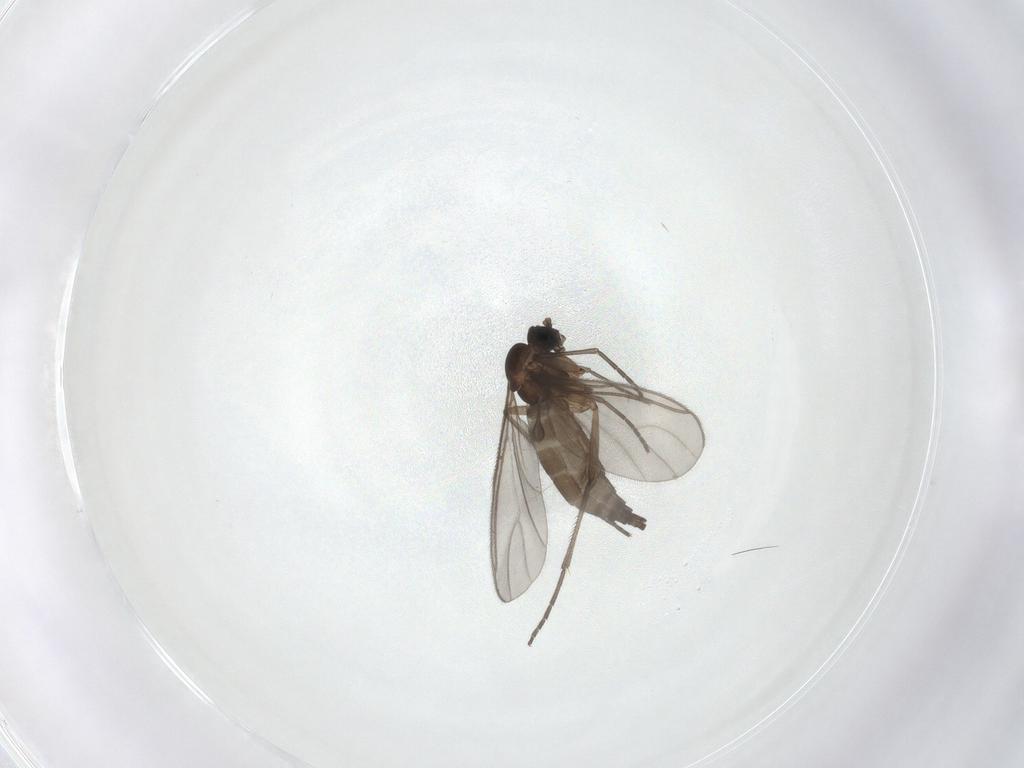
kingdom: Animalia
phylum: Arthropoda
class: Insecta
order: Diptera
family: Sciaridae
